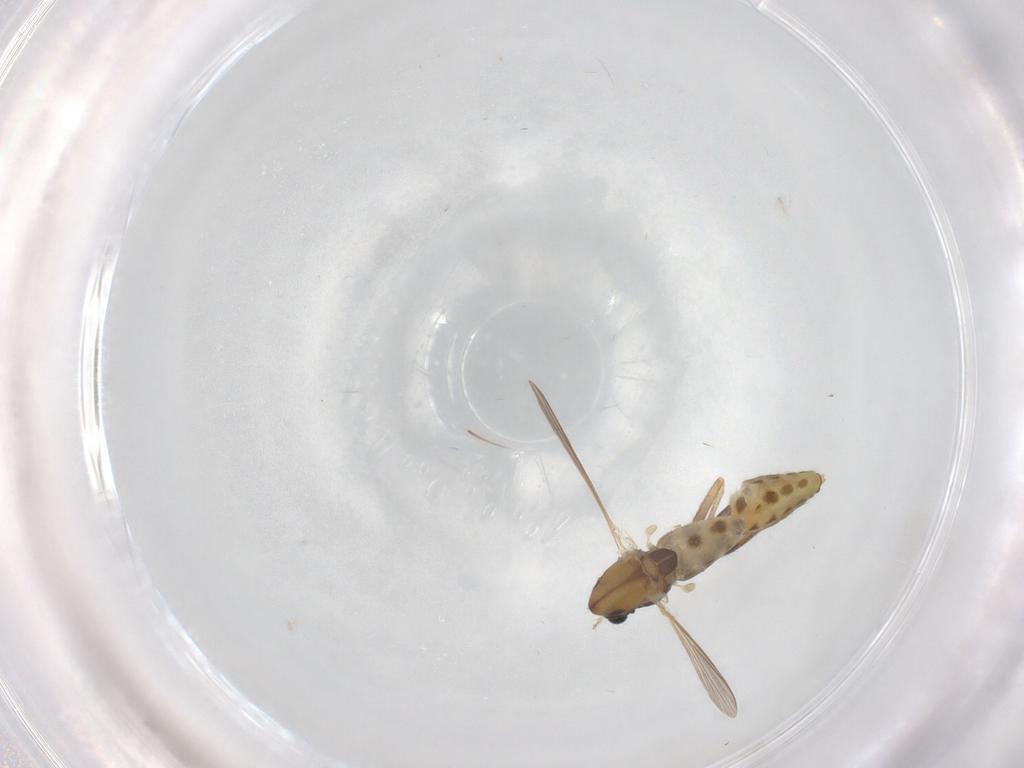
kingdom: Animalia
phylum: Arthropoda
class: Insecta
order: Diptera
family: Chironomidae
